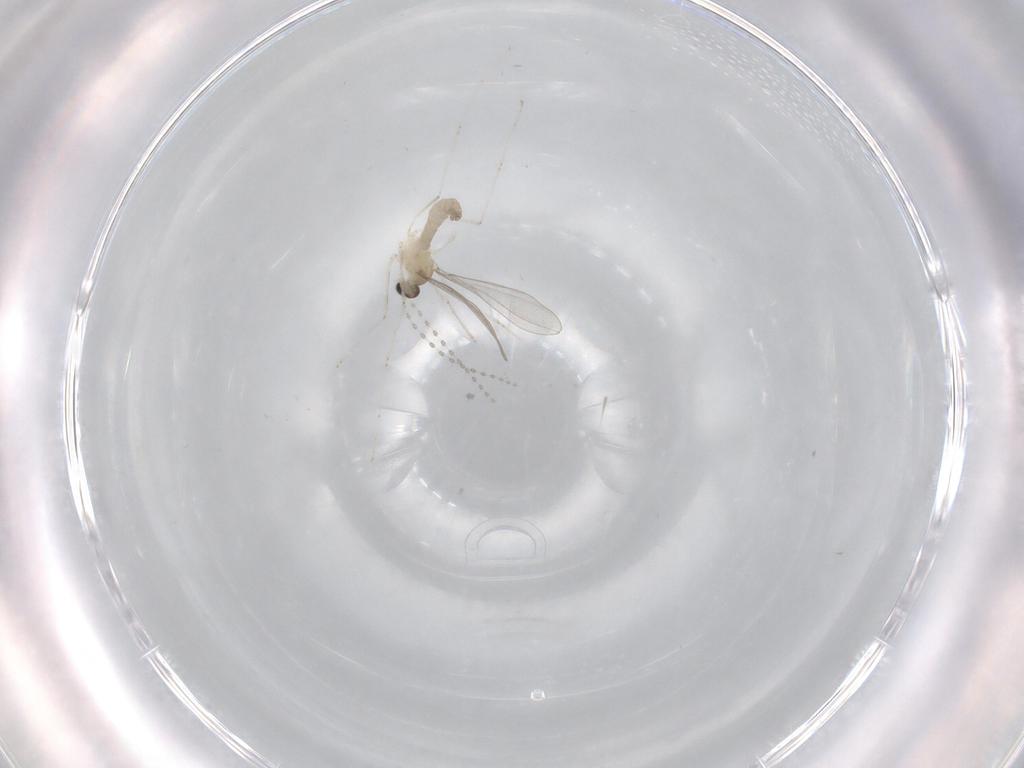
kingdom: Animalia
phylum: Arthropoda
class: Insecta
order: Diptera
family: Cecidomyiidae
